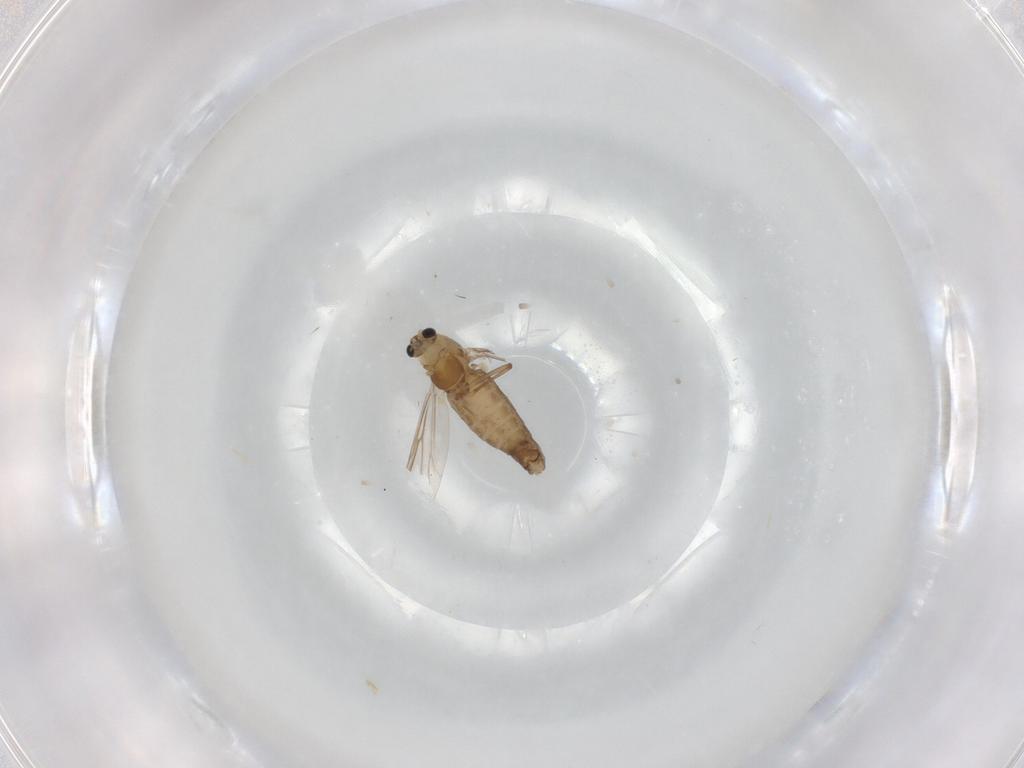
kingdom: Animalia
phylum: Arthropoda
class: Insecta
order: Diptera
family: Chironomidae
